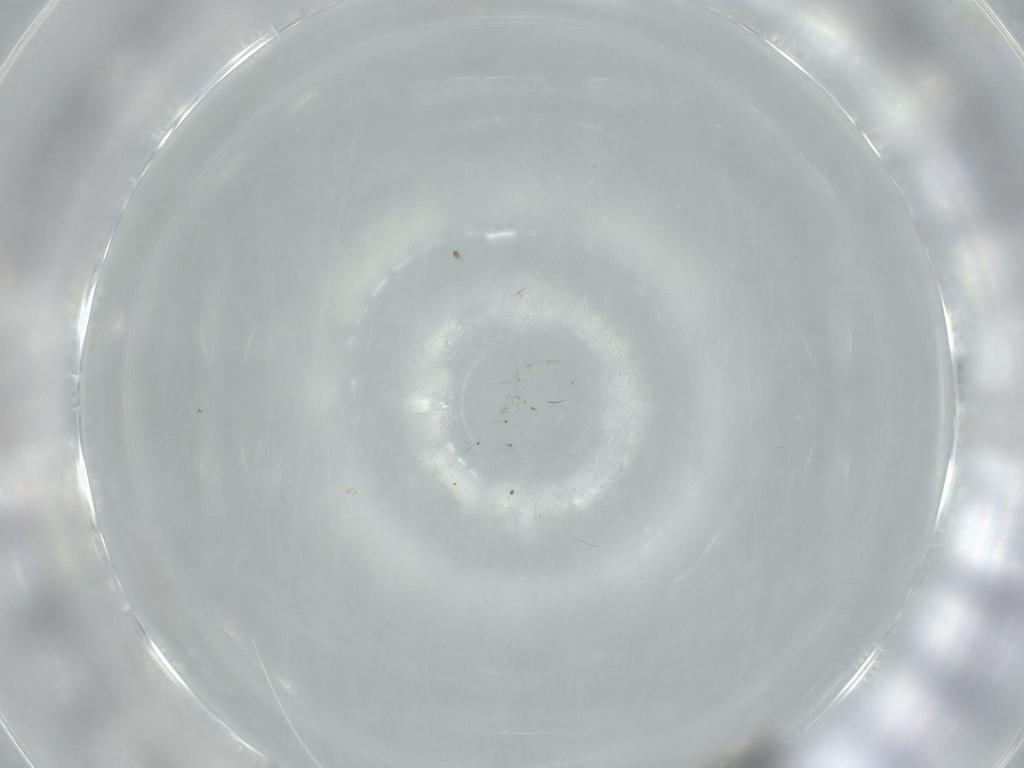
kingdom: Animalia
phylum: Arthropoda
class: Insecta
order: Diptera
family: Phoridae
